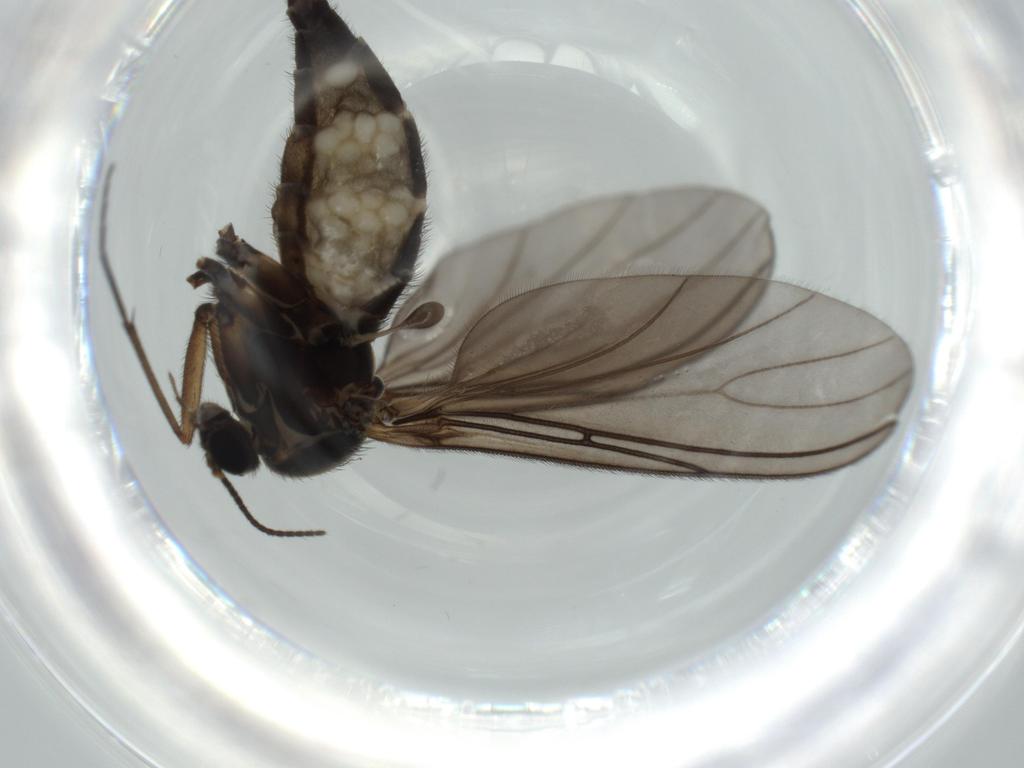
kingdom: Animalia
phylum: Arthropoda
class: Insecta
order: Diptera
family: Sciaridae
